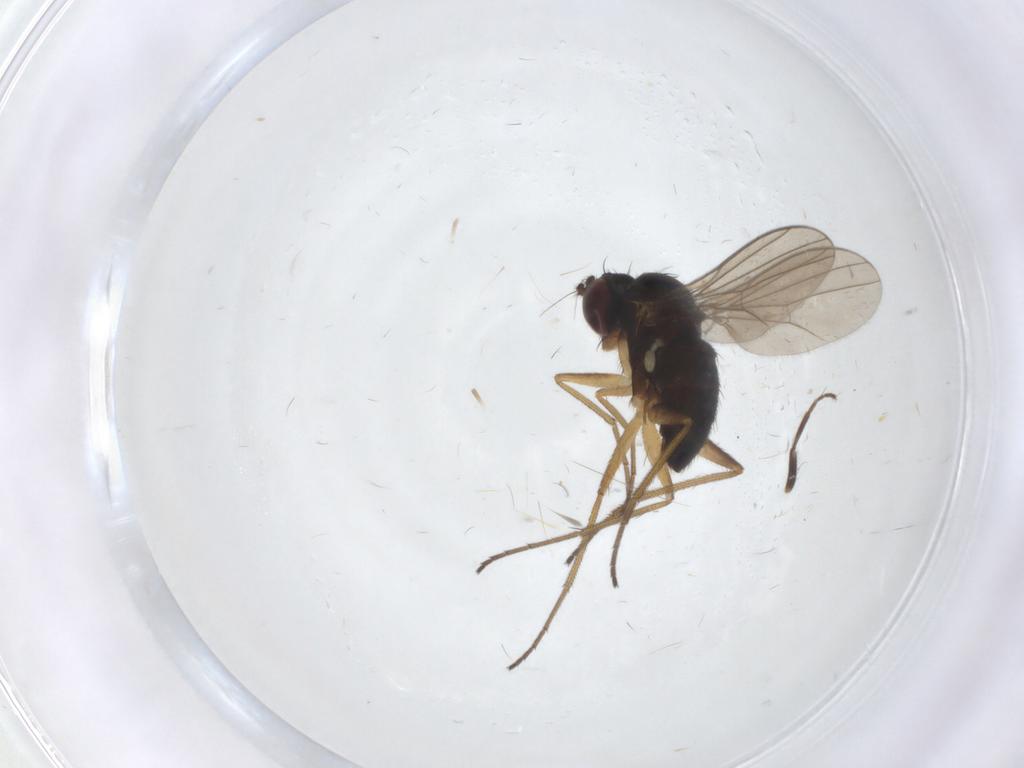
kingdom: Animalia
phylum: Arthropoda
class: Insecta
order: Diptera
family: Dolichopodidae
